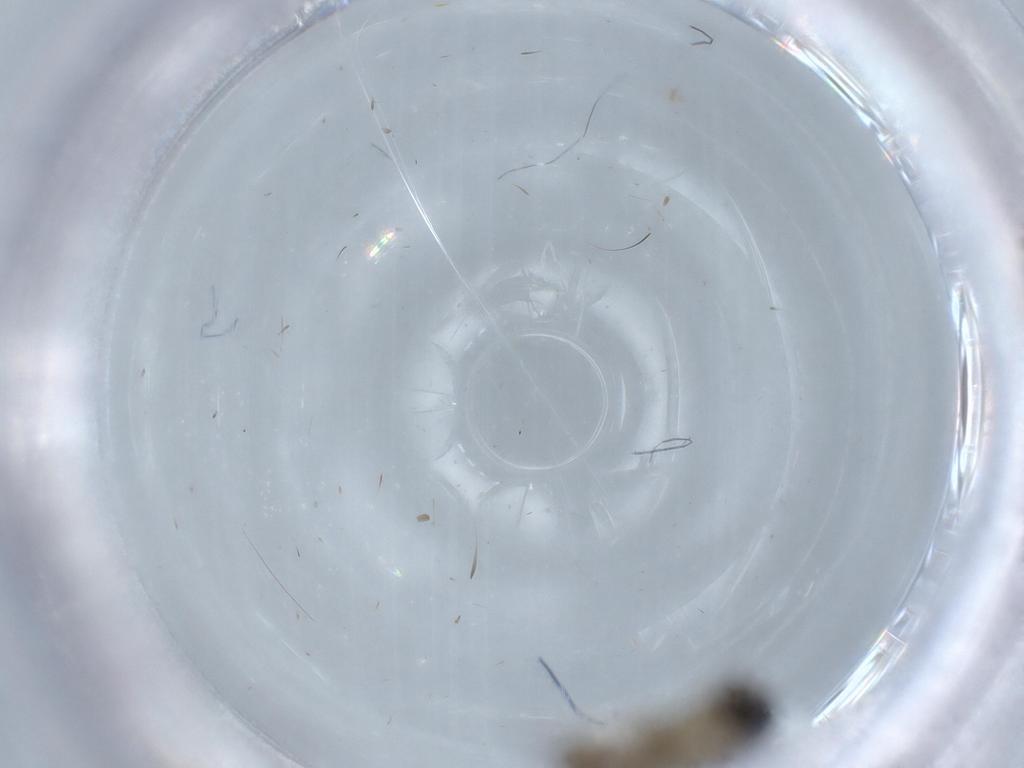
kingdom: Animalia
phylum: Arthropoda
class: Insecta
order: Diptera
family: Phoridae
